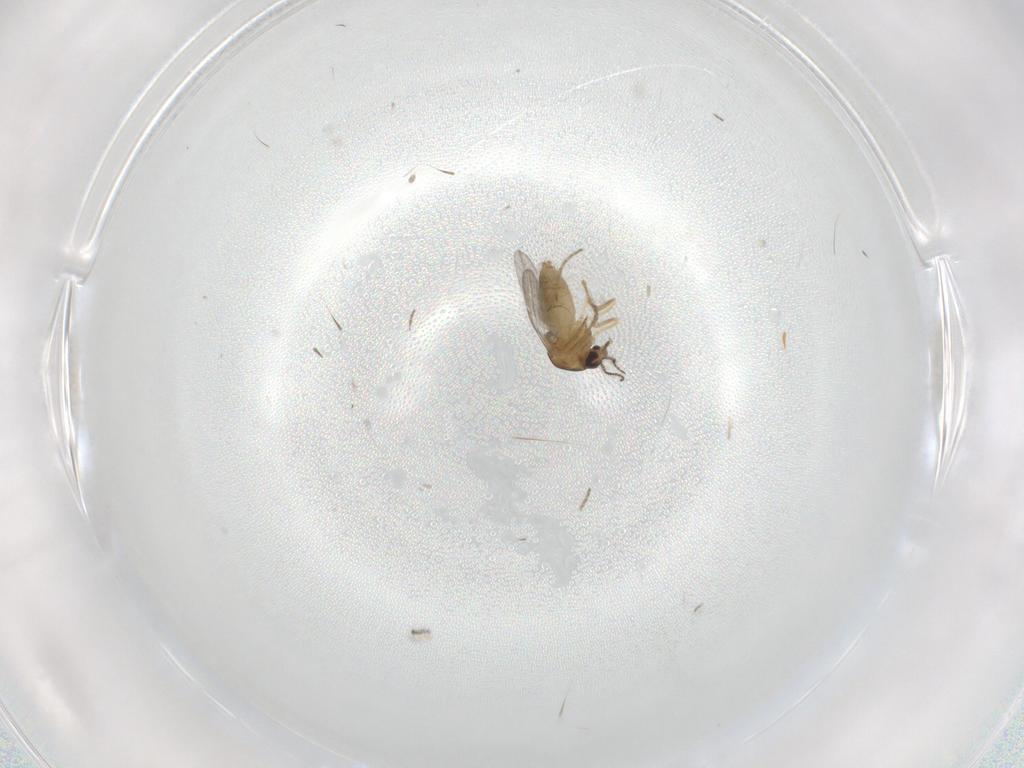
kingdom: Animalia
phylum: Arthropoda
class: Insecta
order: Diptera
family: Ceratopogonidae
